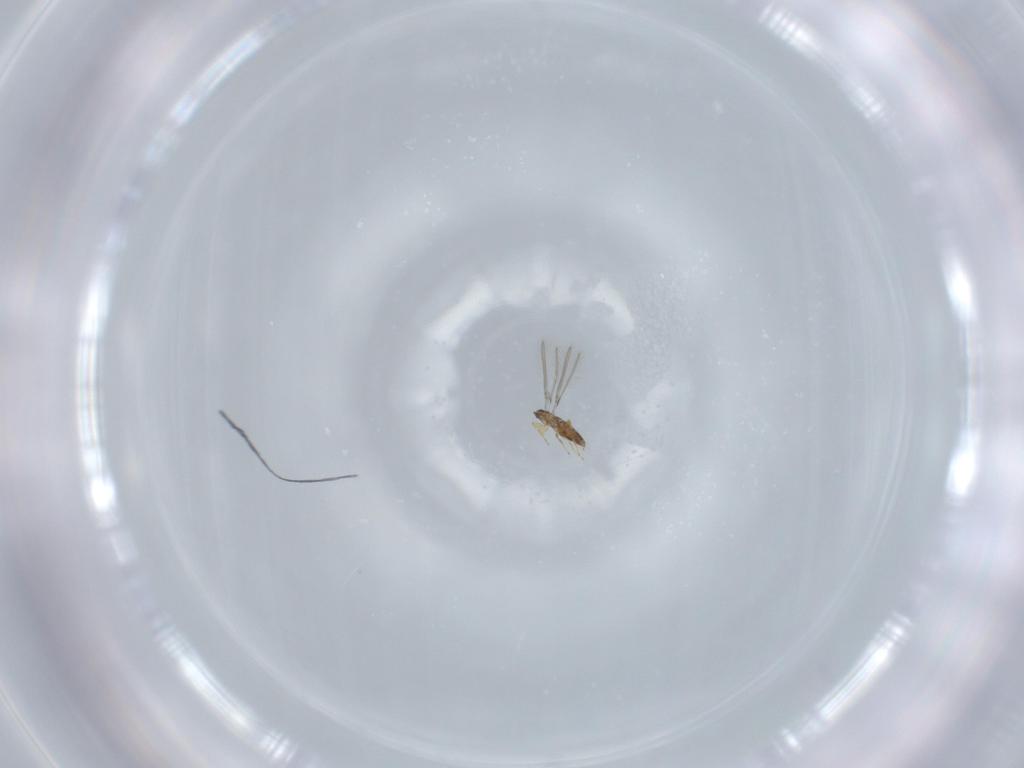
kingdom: Animalia
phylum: Arthropoda
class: Insecta
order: Hymenoptera
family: Mymaridae
